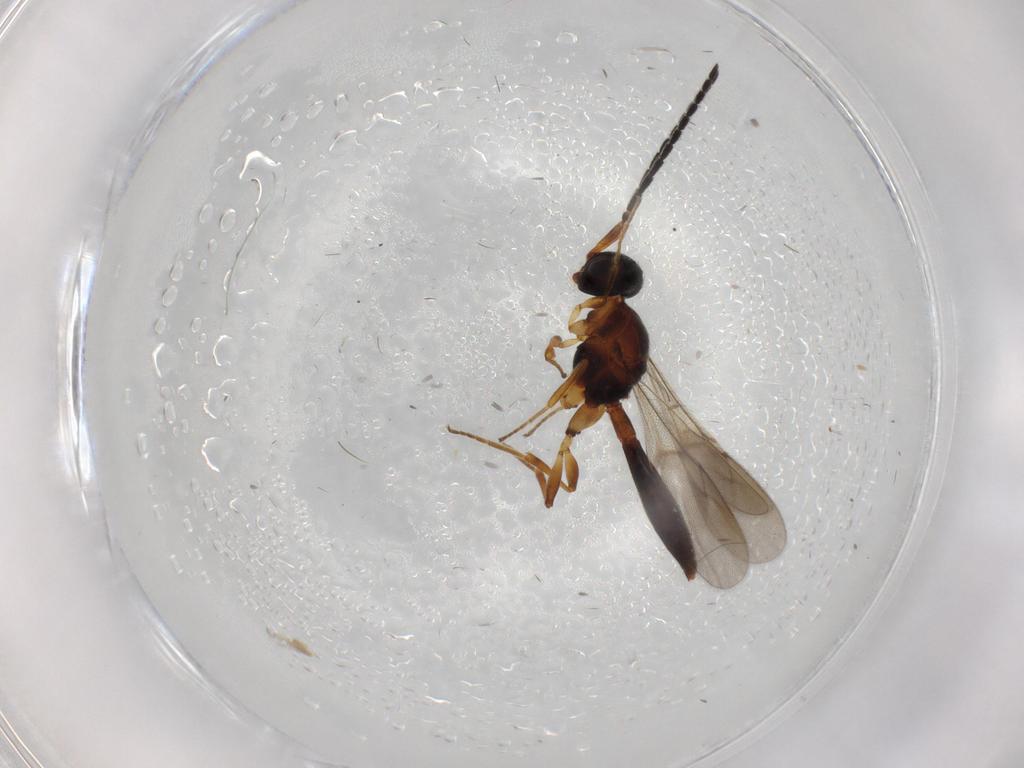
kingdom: Animalia
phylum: Arthropoda
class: Insecta
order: Hymenoptera
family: Scelionidae
